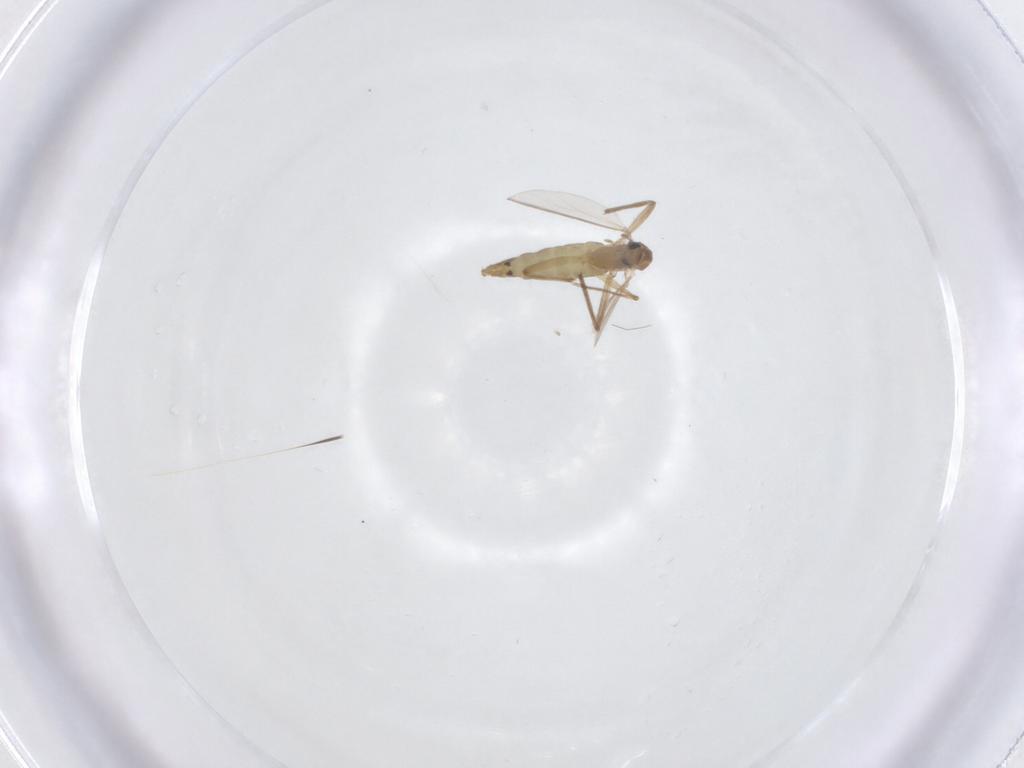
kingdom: Animalia
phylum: Arthropoda
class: Insecta
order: Diptera
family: Chironomidae
